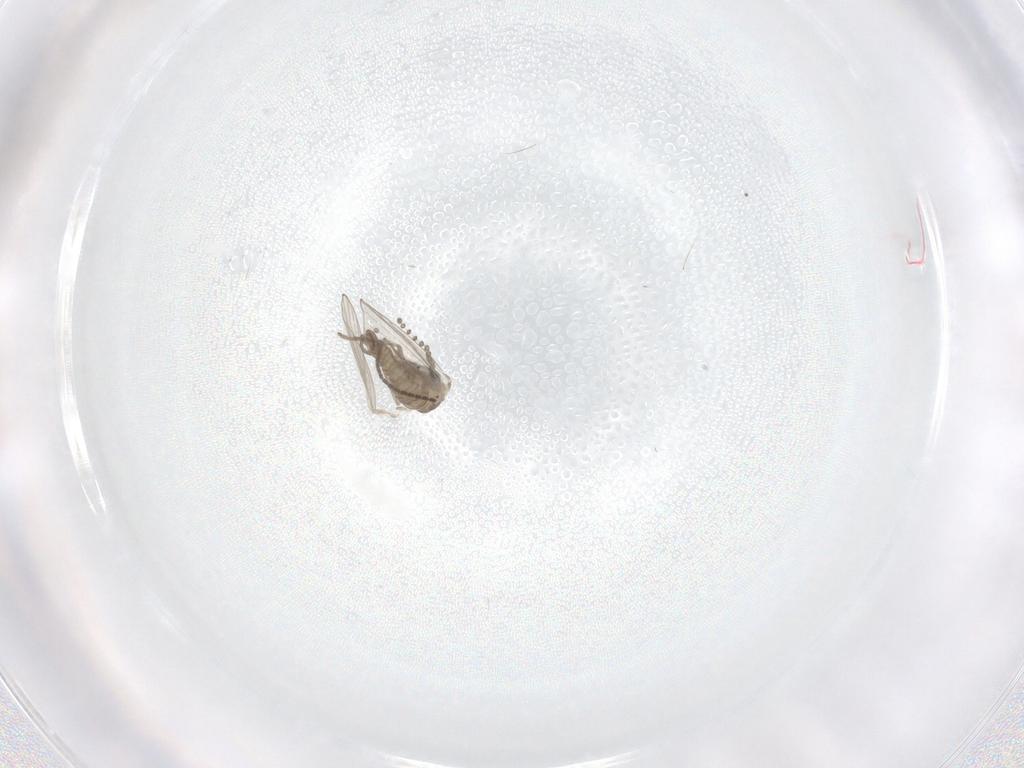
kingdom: Animalia
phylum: Arthropoda
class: Insecta
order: Diptera
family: Psychodidae
